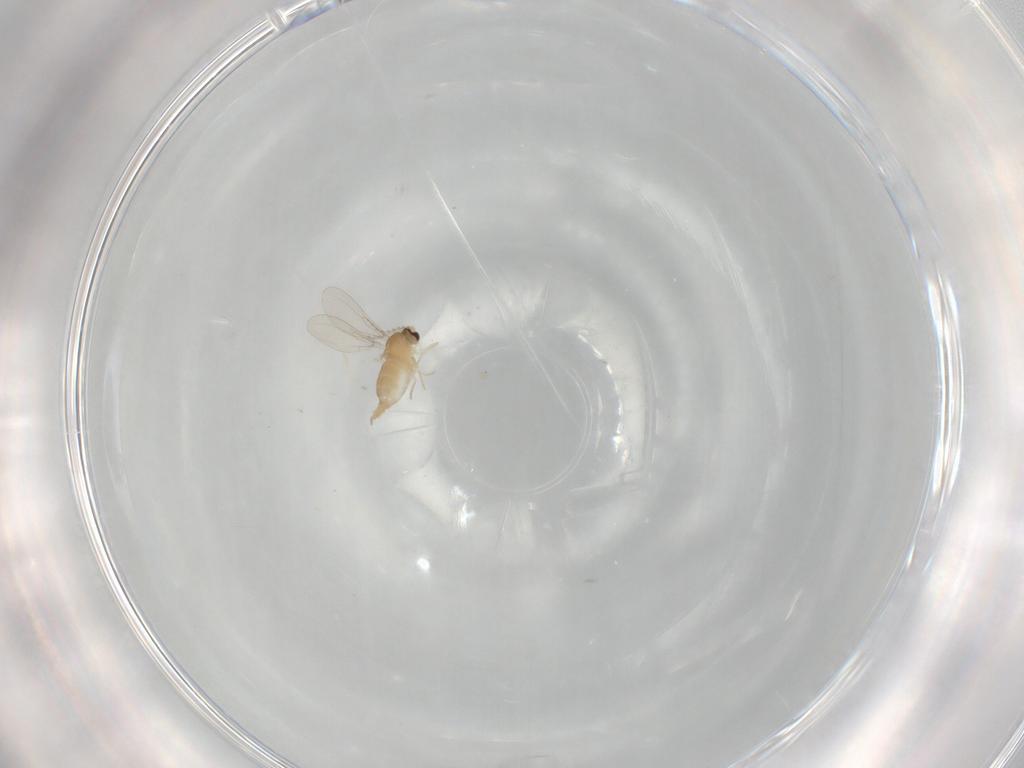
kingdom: Animalia
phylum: Arthropoda
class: Insecta
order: Diptera
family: Cecidomyiidae
